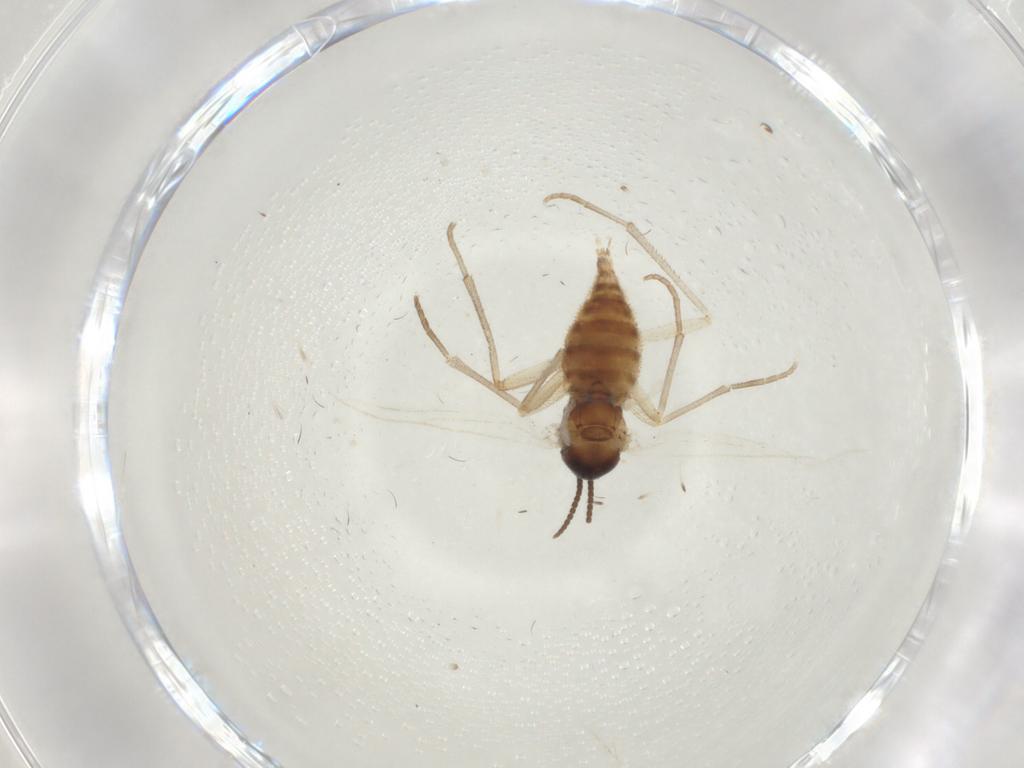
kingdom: Animalia
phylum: Arthropoda
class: Insecta
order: Diptera
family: Sciaridae
